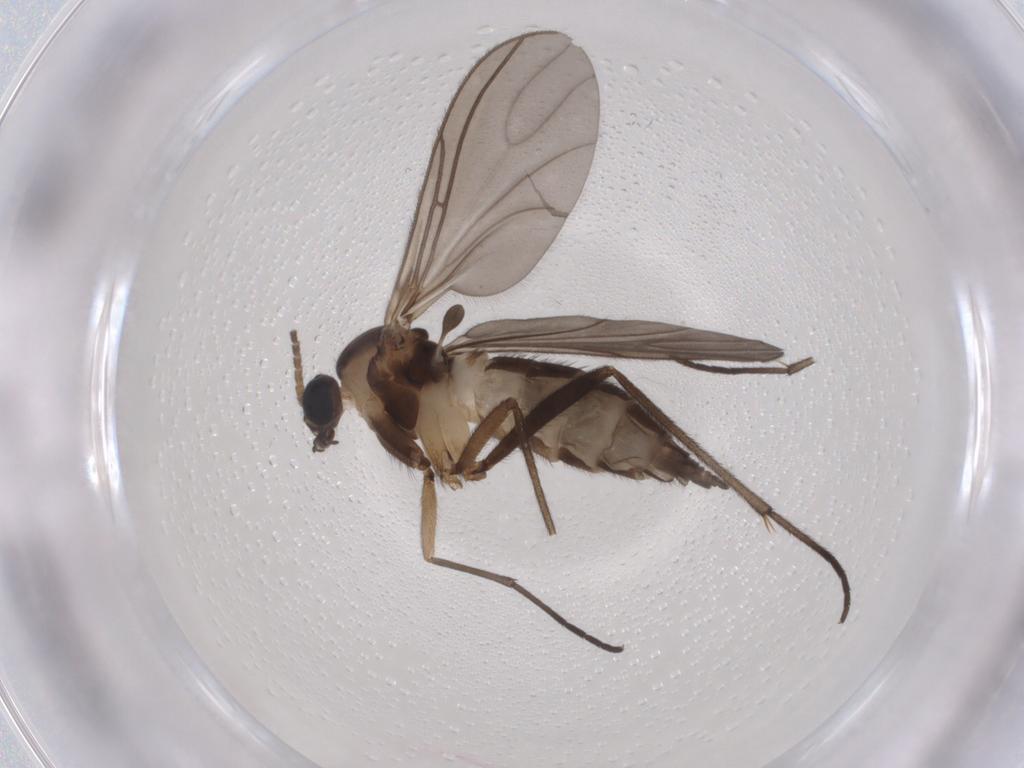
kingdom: Animalia
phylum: Arthropoda
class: Insecta
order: Diptera
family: Sciaridae
